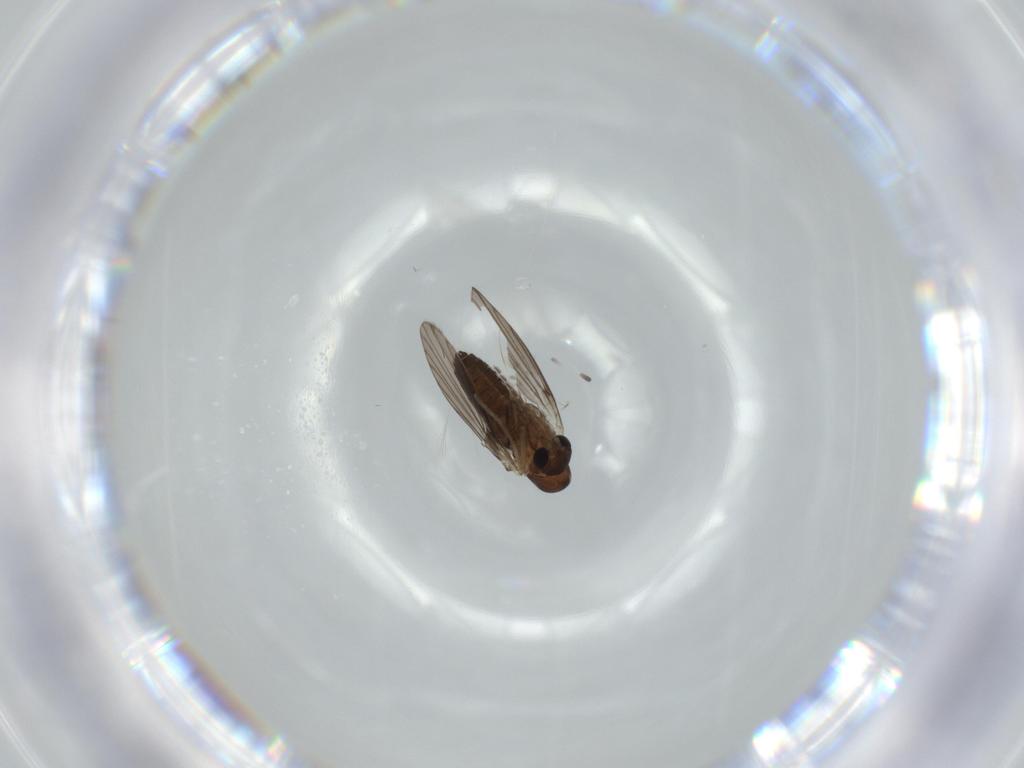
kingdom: Animalia
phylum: Arthropoda
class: Insecta
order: Diptera
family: Psychodidae
